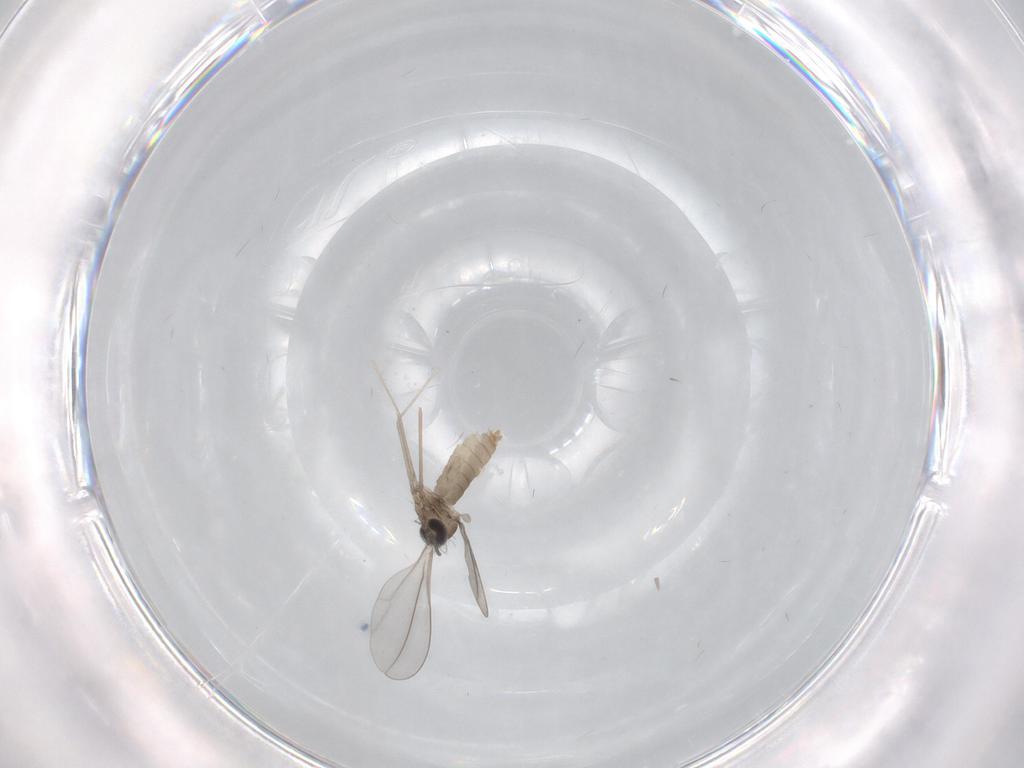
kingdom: Animalia
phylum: Arthropoda
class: Insecta
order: Diptera
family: Cecidomyiidae
